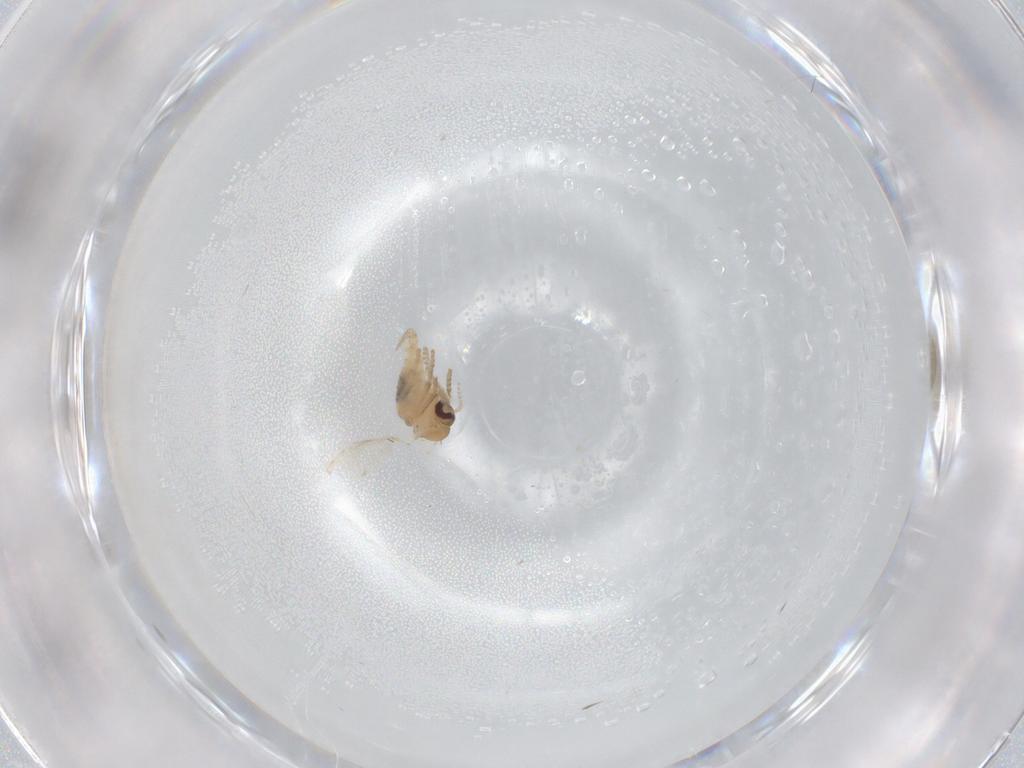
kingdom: Animalia
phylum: Arthropoda
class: Insecta
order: Diptera
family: Psychodidae
